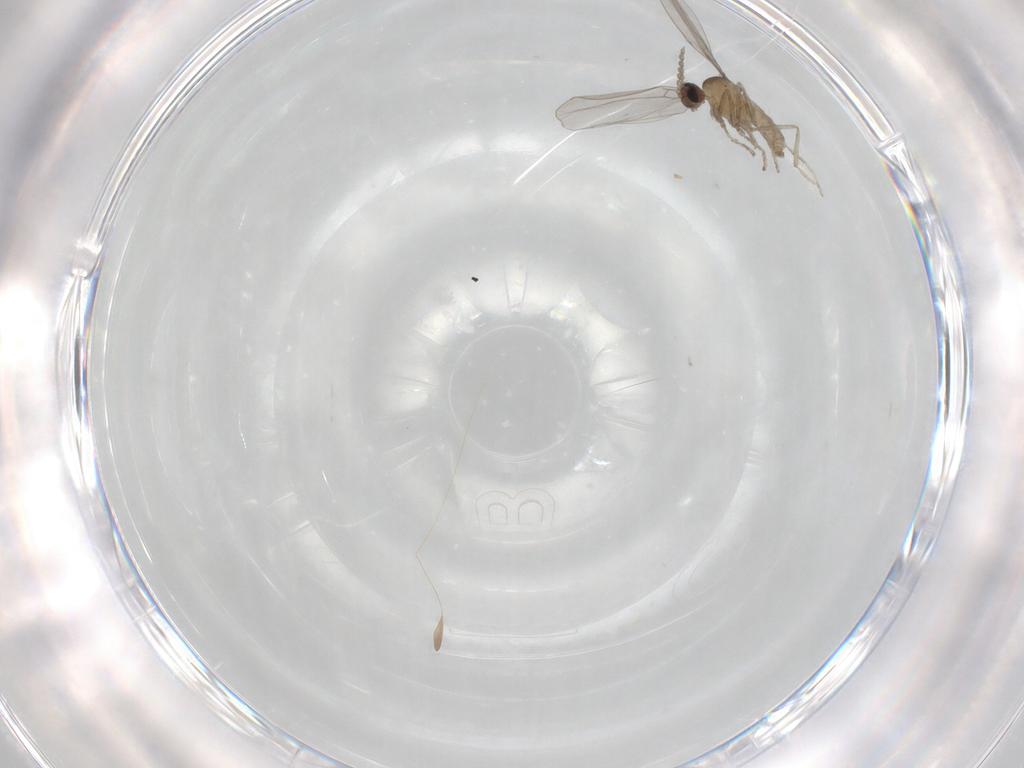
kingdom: Animalia
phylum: Arthropoda
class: Insecta
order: Diptera
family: Cecidomyiidae
